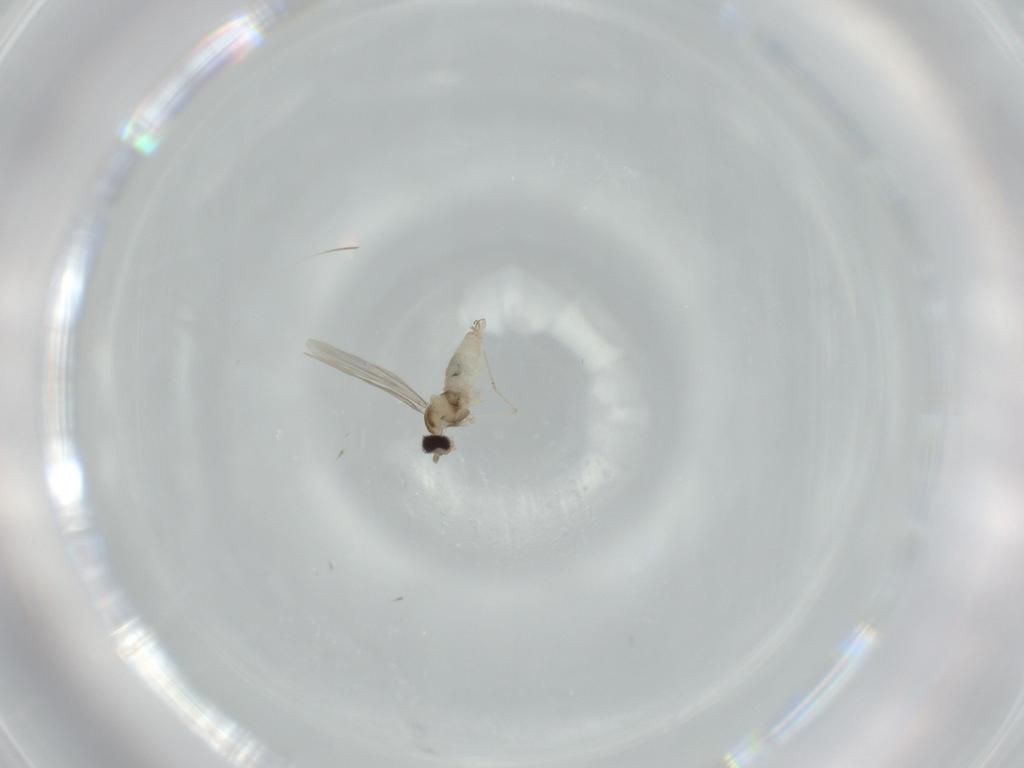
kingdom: Animalia
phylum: Arthropoda
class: Insecta
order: Diptera
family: Cecidomyiidae
